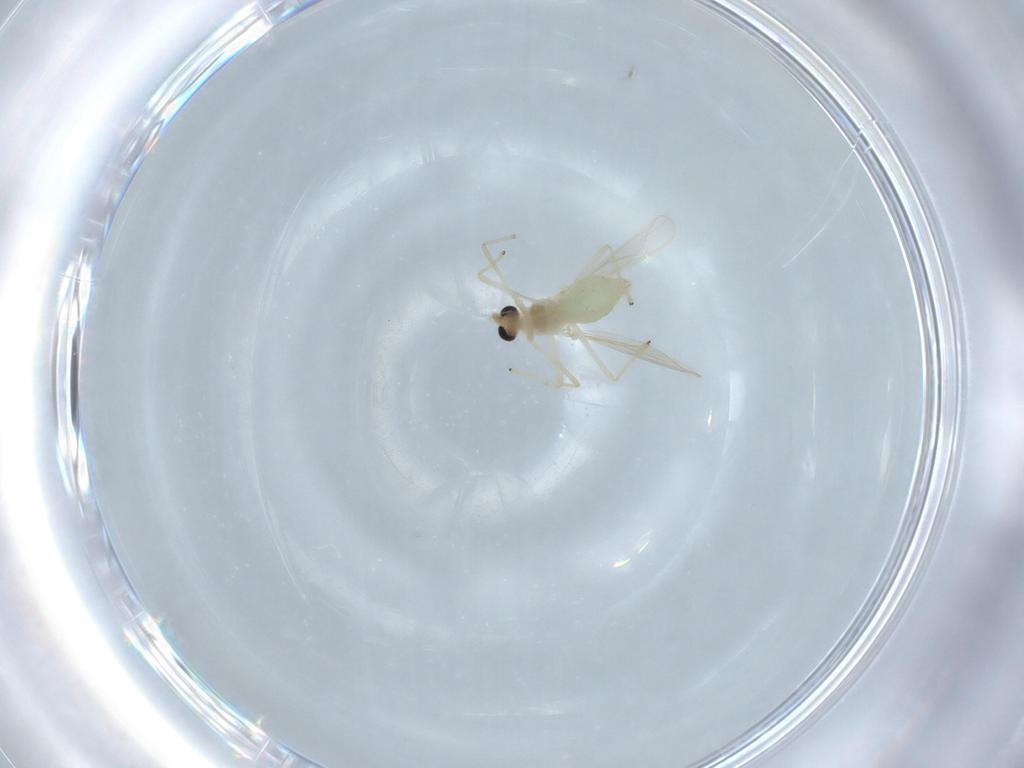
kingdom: Animalia
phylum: Arthropoda
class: Insecta
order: Diptera
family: Chironomidae
